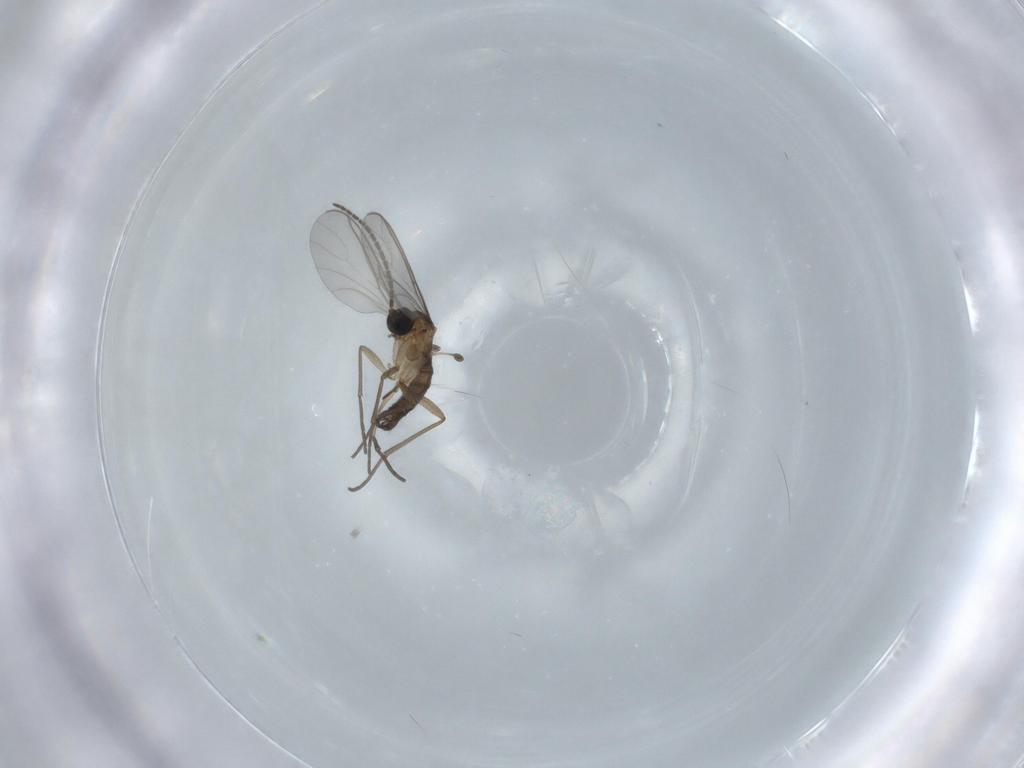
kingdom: Animalia
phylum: Arthropoda
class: Insecta
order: Diptera
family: Sciaridae
